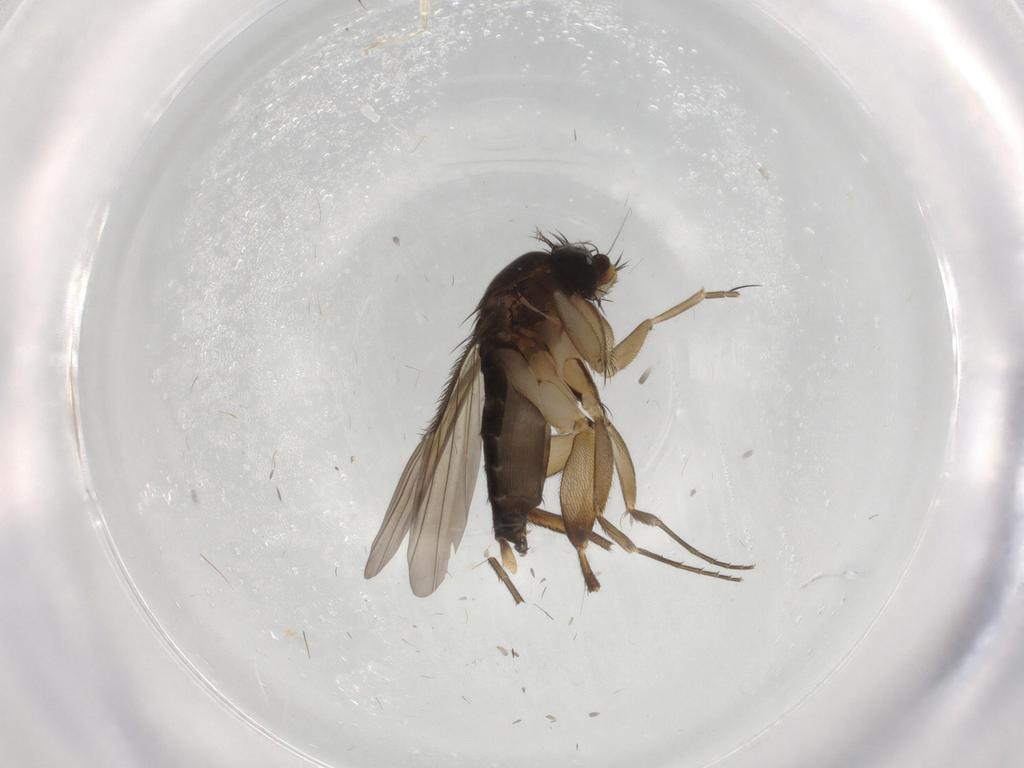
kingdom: Animalia
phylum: Arthropoda
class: Insecta
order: Diptera
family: Phoridae
